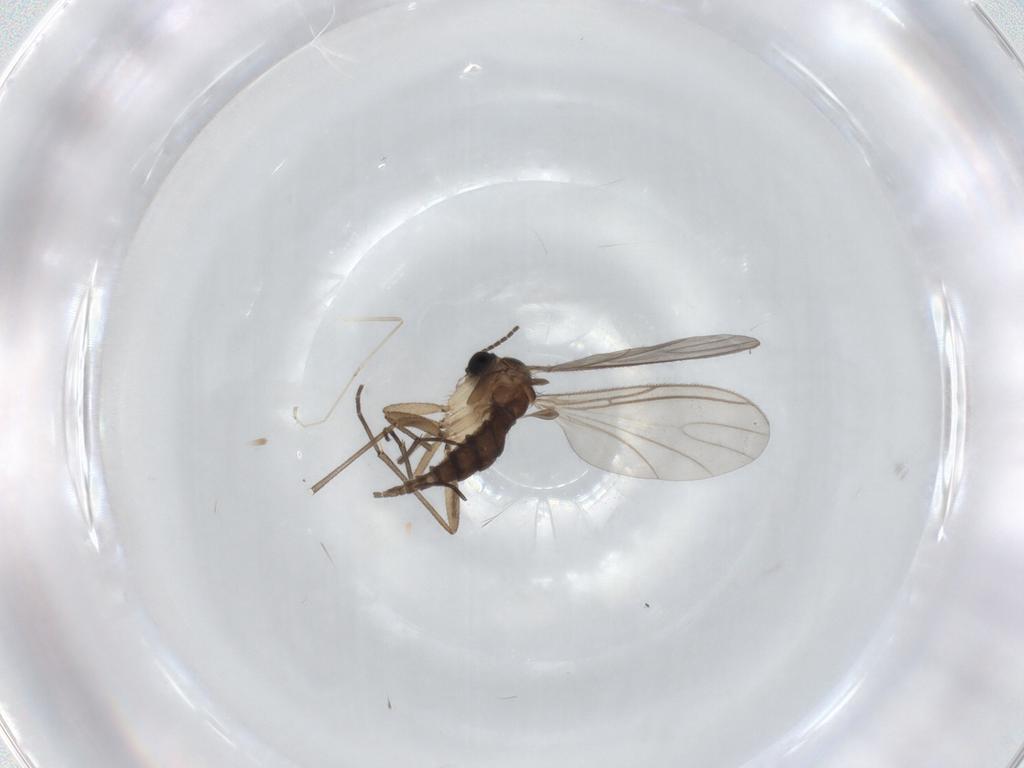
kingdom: Animalia
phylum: Arthropoda
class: Insecta
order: Diptera
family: Sciaridae
